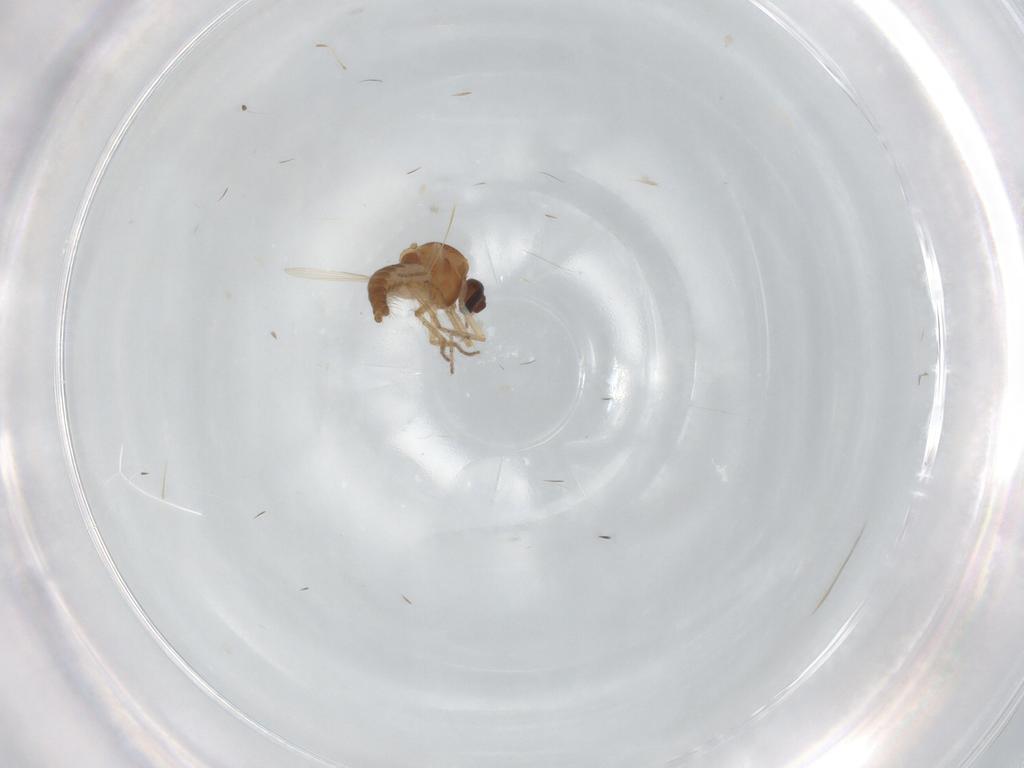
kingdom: Animalia
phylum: Arthropoda
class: Insecta
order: Diptera
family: Ceratopogonidae
